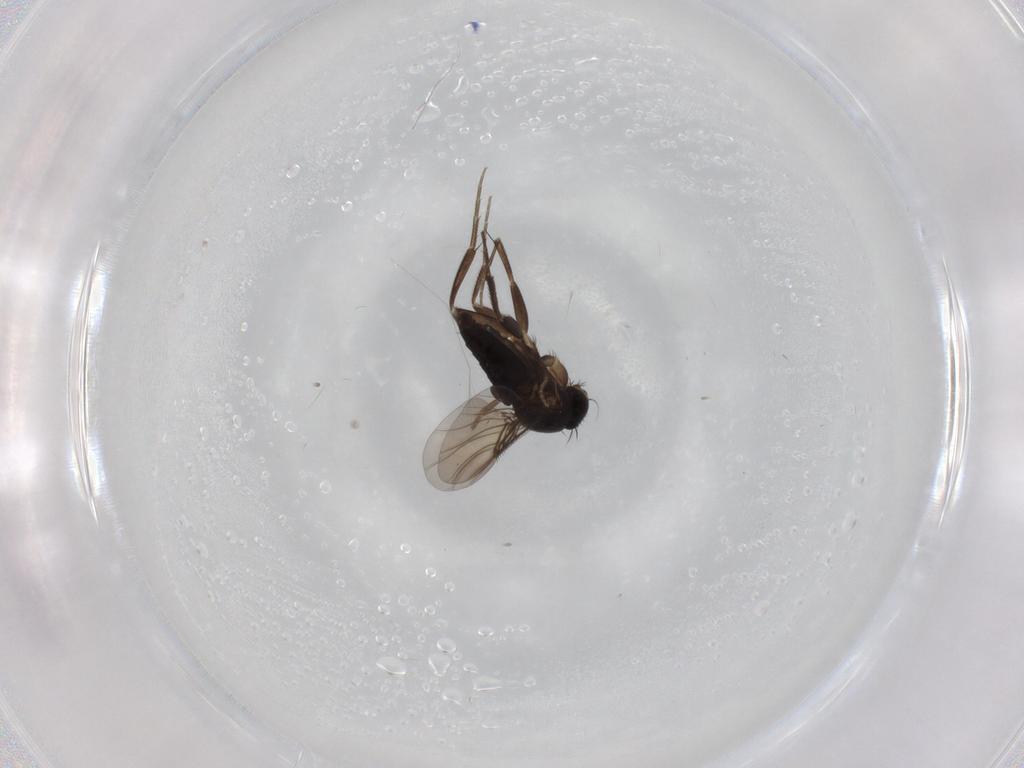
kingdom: Animalia
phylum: Arthropoda
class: Insecta
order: Diptera
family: Phoridae
